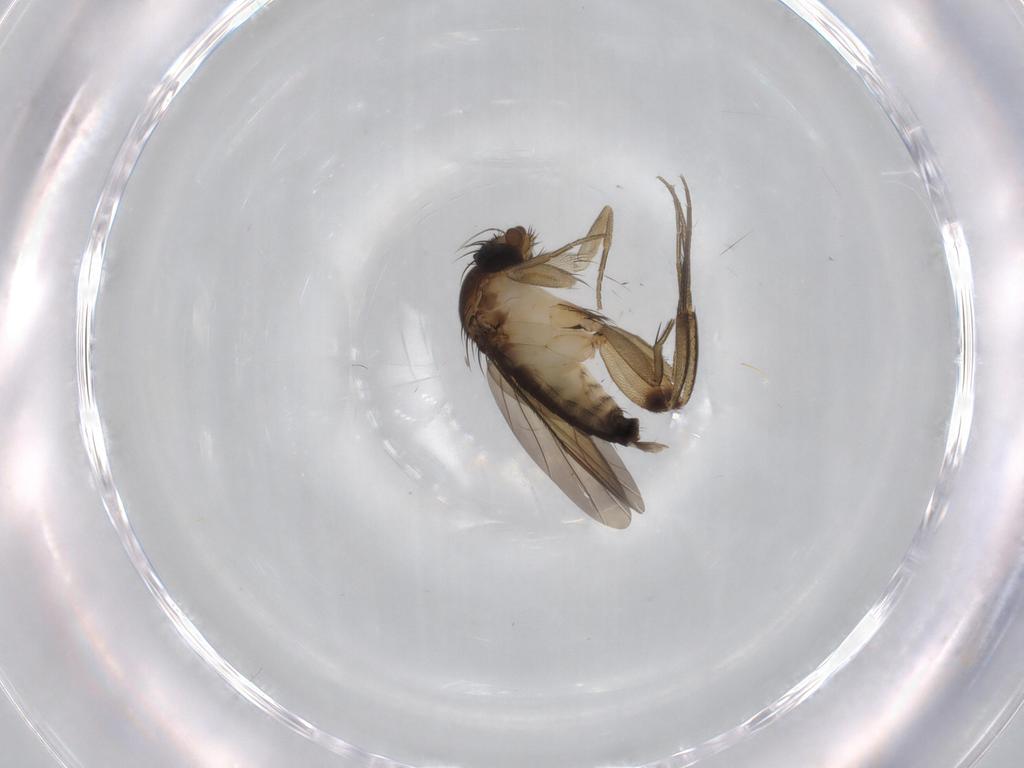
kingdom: Animalia
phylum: Arthropoda
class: Insecta
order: Diptera
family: Phoridae
